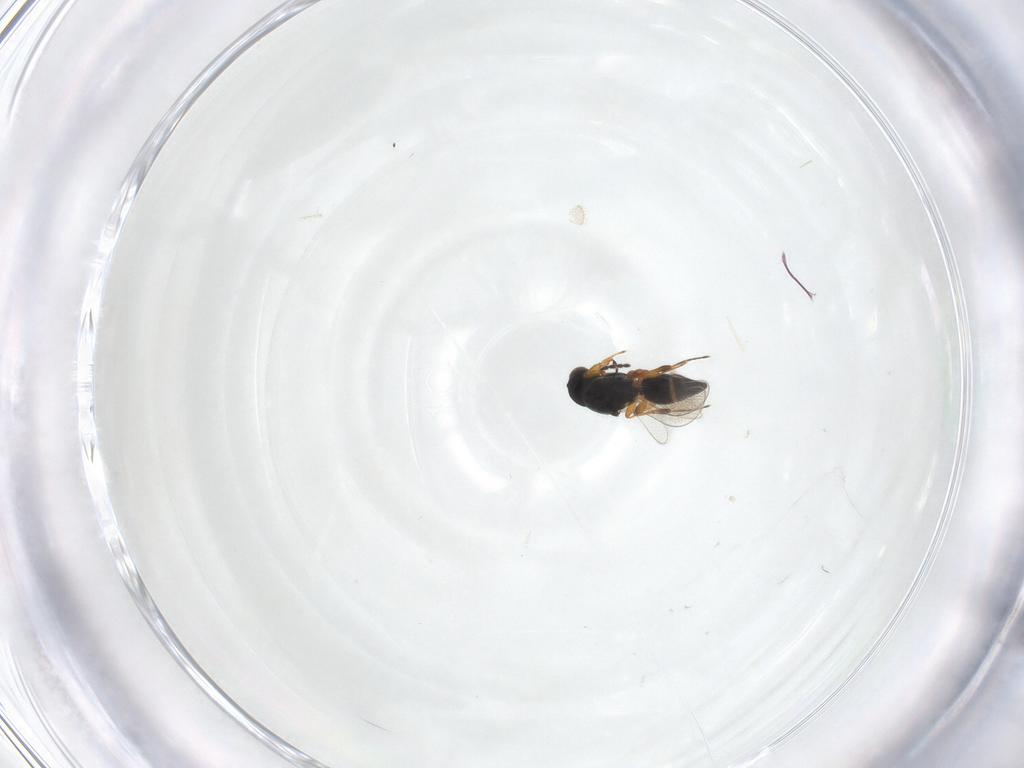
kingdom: Animalia
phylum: Arthropoda
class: Insecta
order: Hymenoptera
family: Platygastridae
